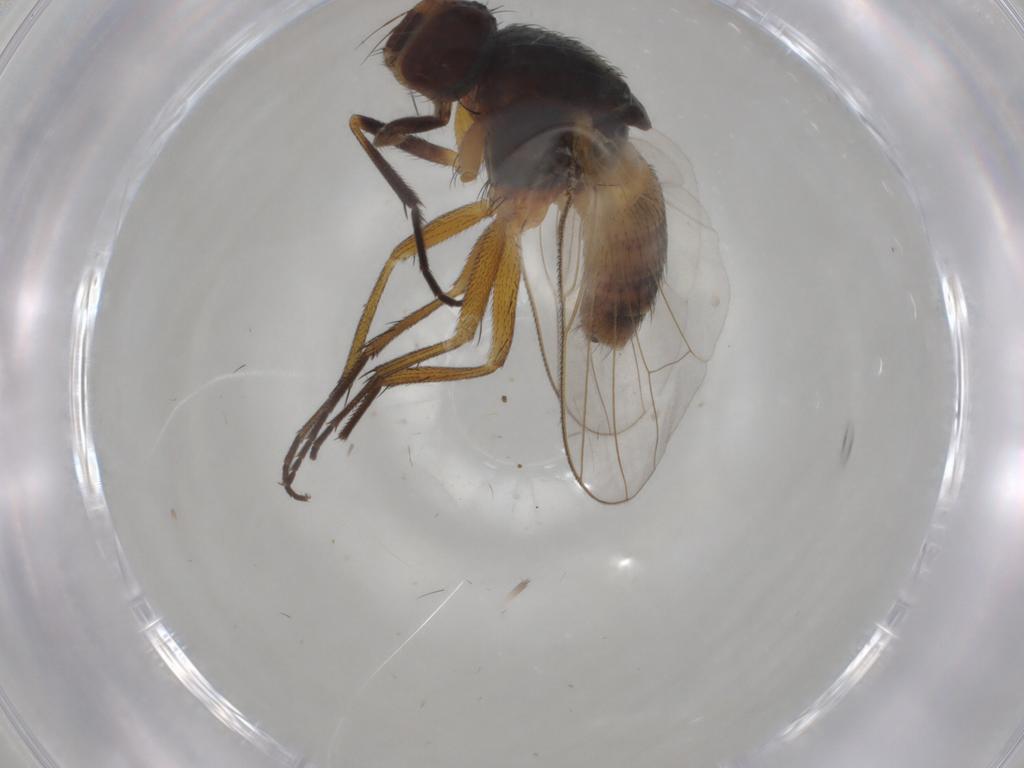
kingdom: Animalia
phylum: Arthropoda
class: Insecta
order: Diptera
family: Muscidae
